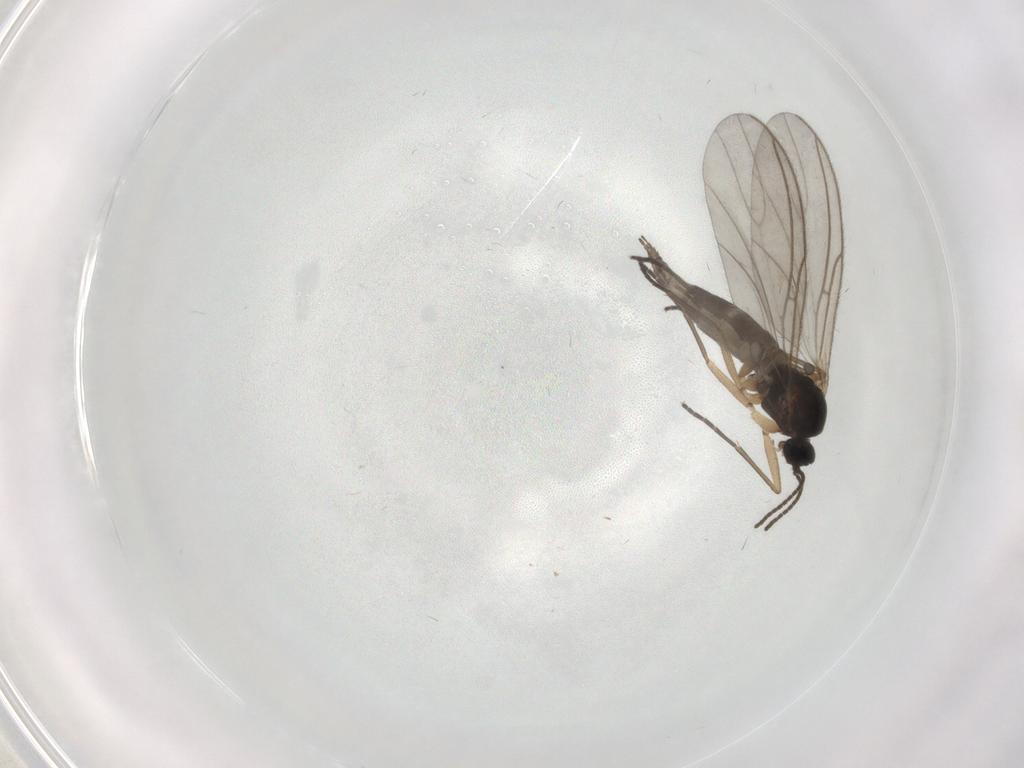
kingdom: Animalia
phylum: Arthropoda
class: Insecta
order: Diptera
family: Sciaridae
